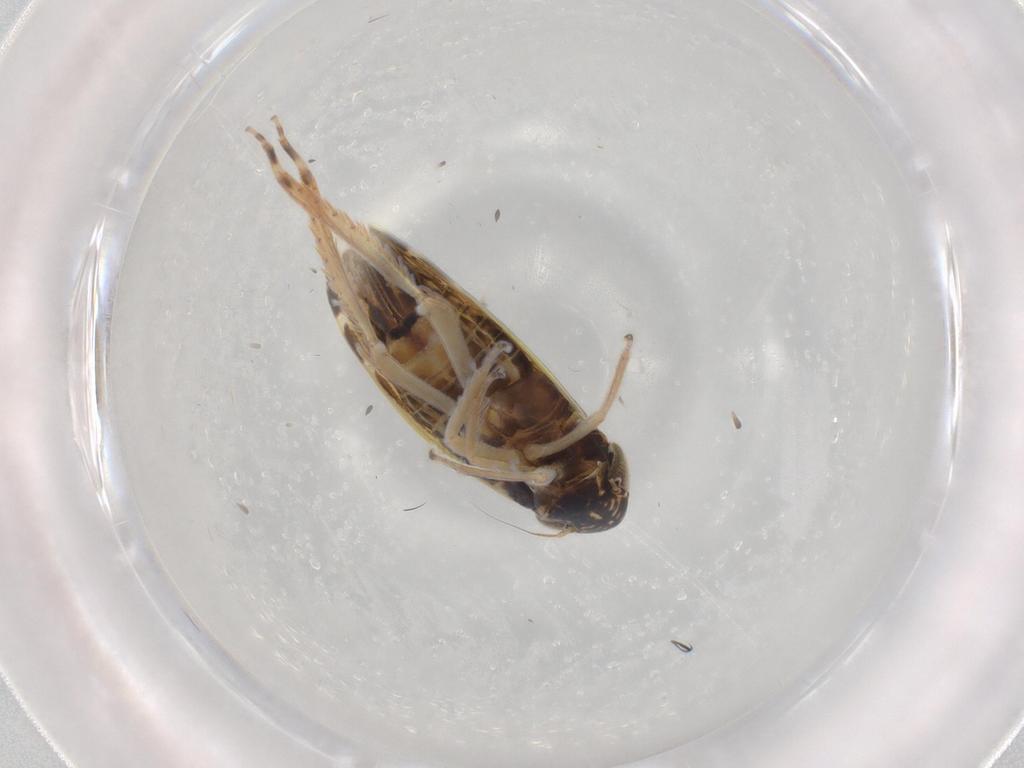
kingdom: Animalia
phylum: Arthropoda
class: Insecta
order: Hemiptera
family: Cicadellidae
